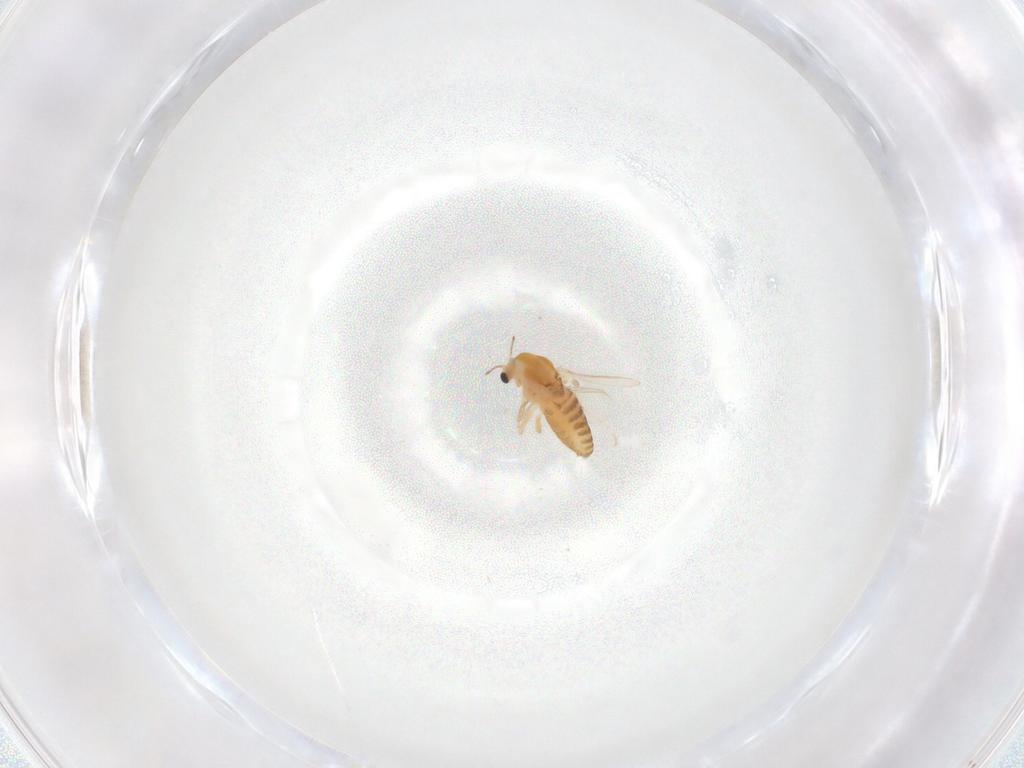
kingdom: Animalia
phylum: Arthropoda
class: Insecta
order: Diptera
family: Chironomidae
